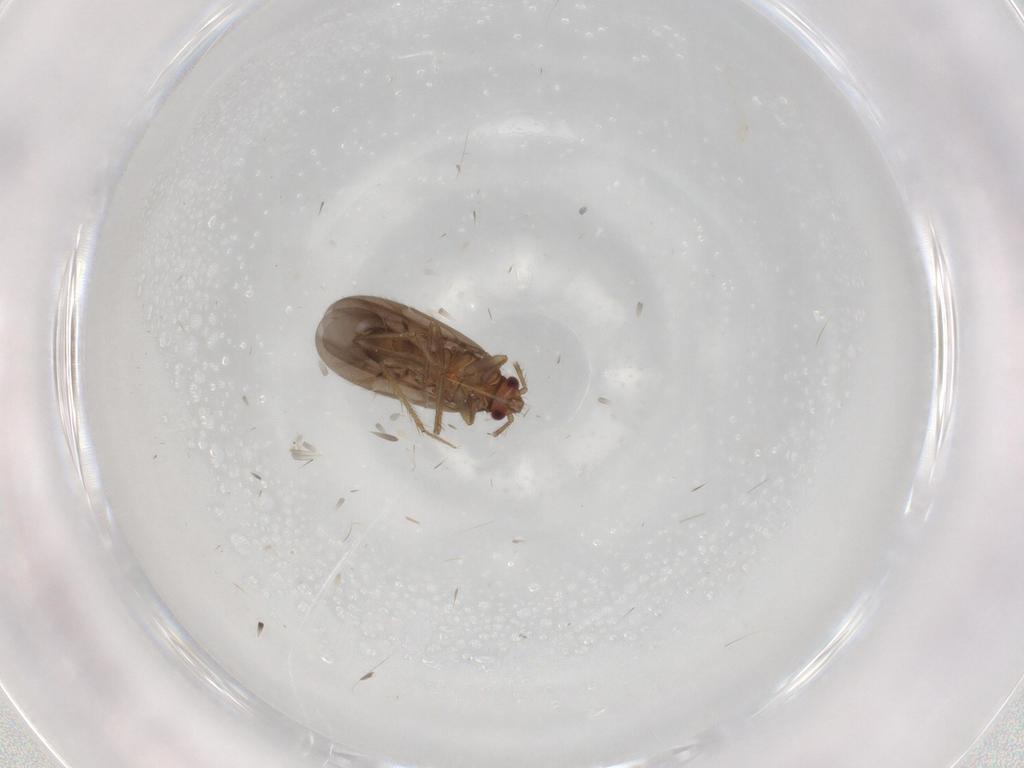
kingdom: Animalia
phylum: Arthropoda
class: Insecta
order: Hemiptera
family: Ceratocombidae
